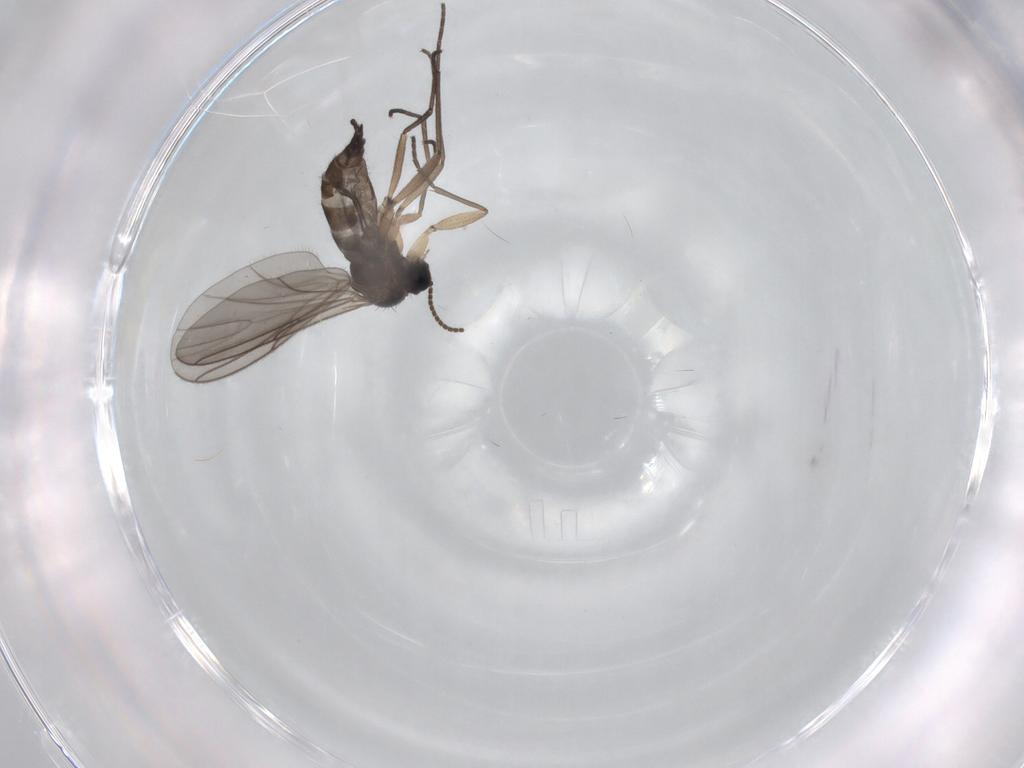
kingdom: Animalia
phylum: Arthropoda
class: Insecta
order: Diptera
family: Sciaridae
